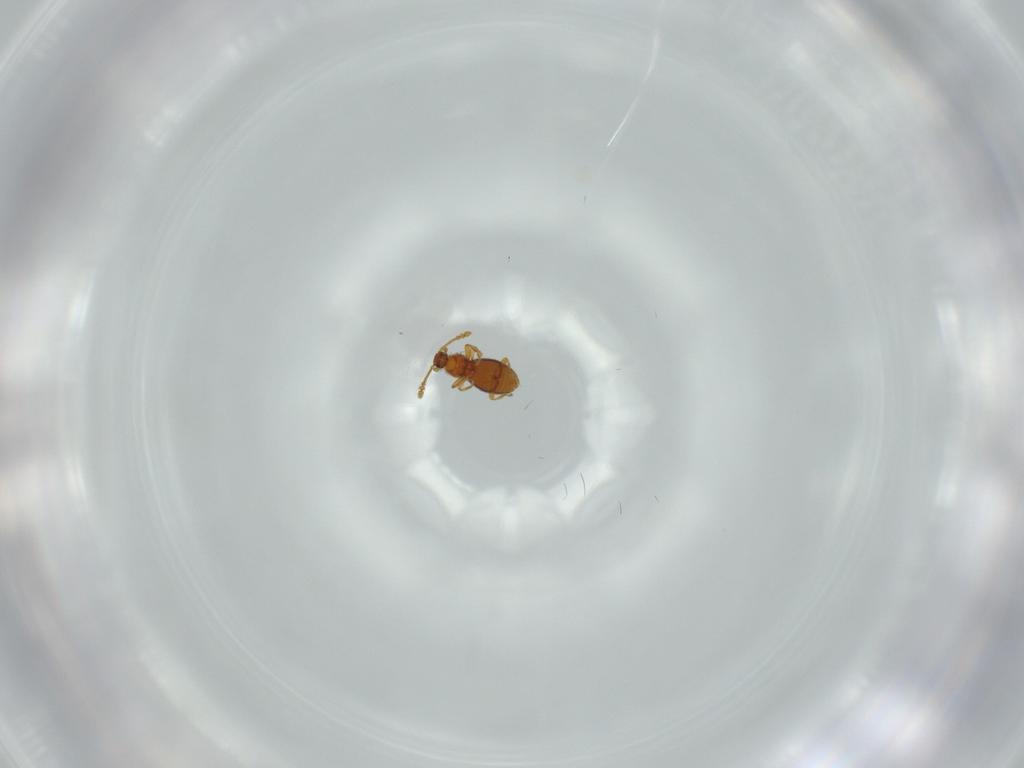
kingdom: Animalia
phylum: Arthropoda
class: Insecta
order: Coleoptera
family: Staphylinidae
